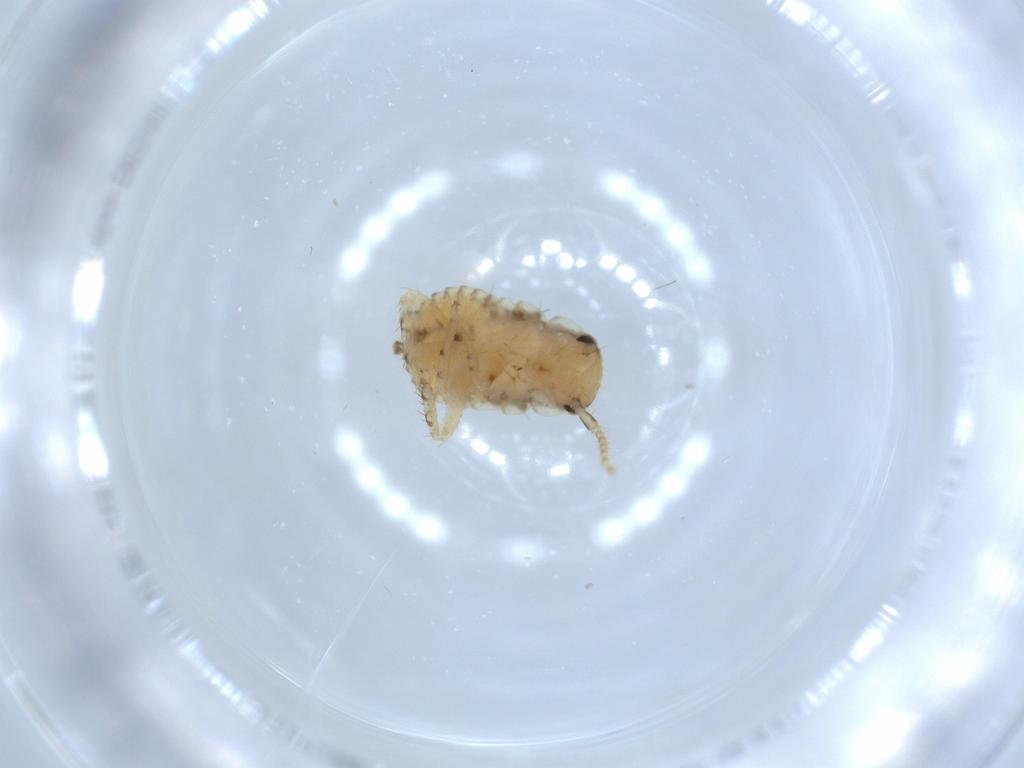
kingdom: Animalia
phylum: Arthropoda
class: Insecta
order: Blattodea
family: Ectobiidae
